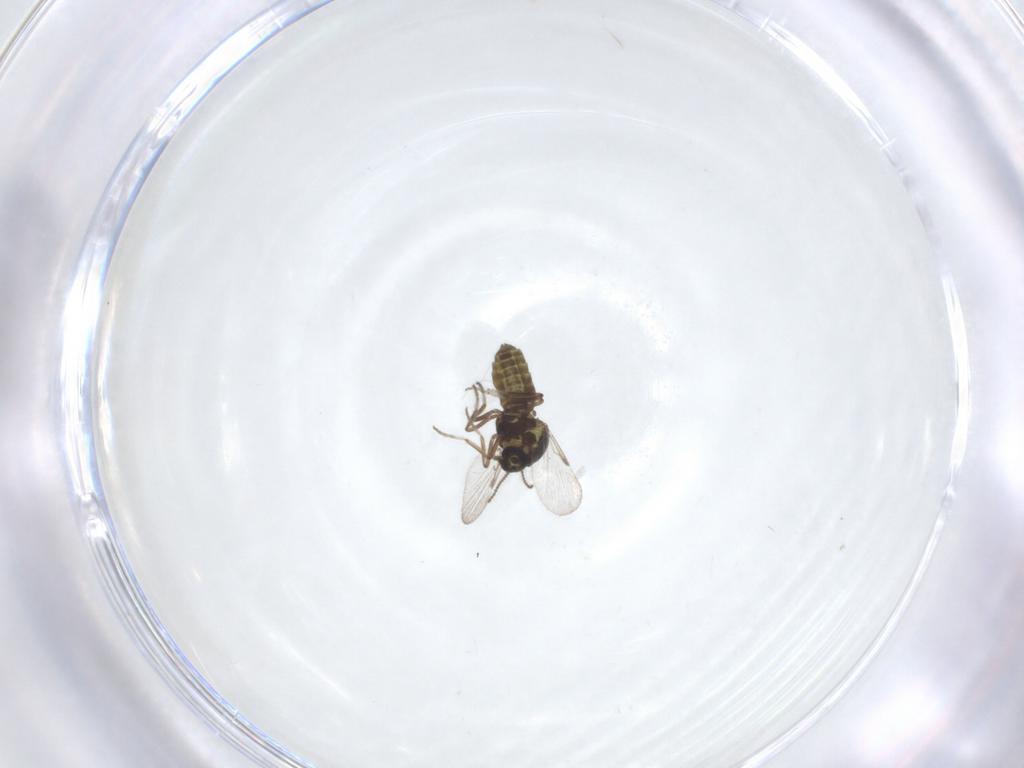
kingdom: Animalia
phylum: Arthropoda
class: Insecta
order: Diptera
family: Ceratopogonidae
